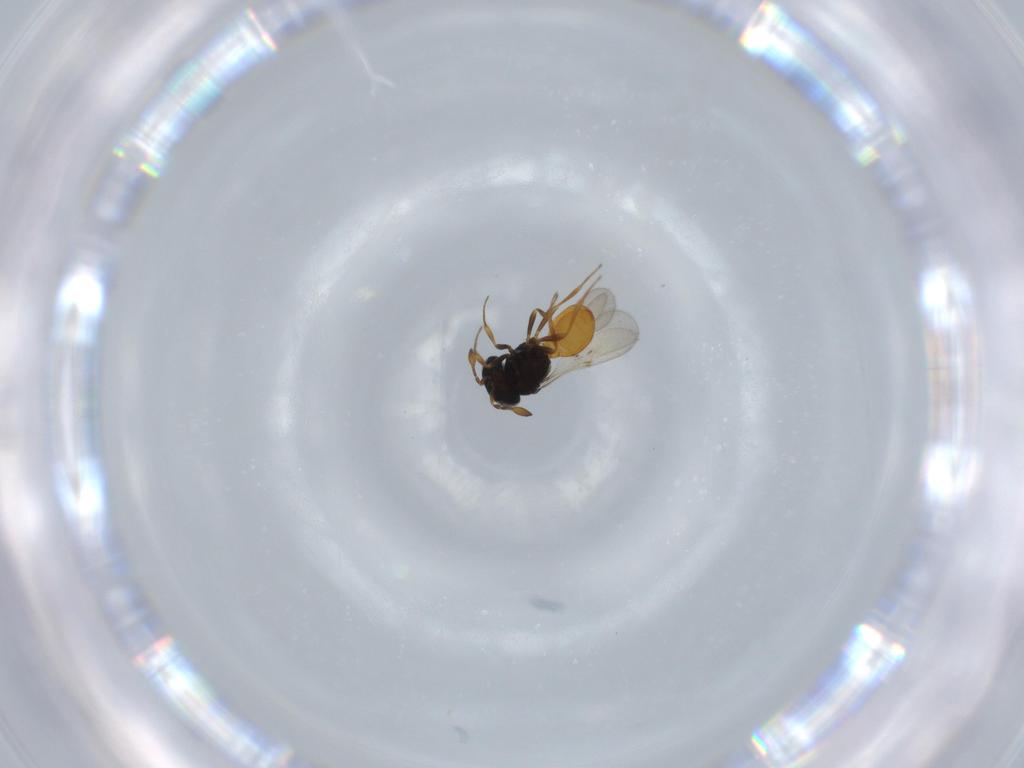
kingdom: Animalia
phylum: Arthropoda
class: Insecta
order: Hymenoptera
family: Scelionidae
